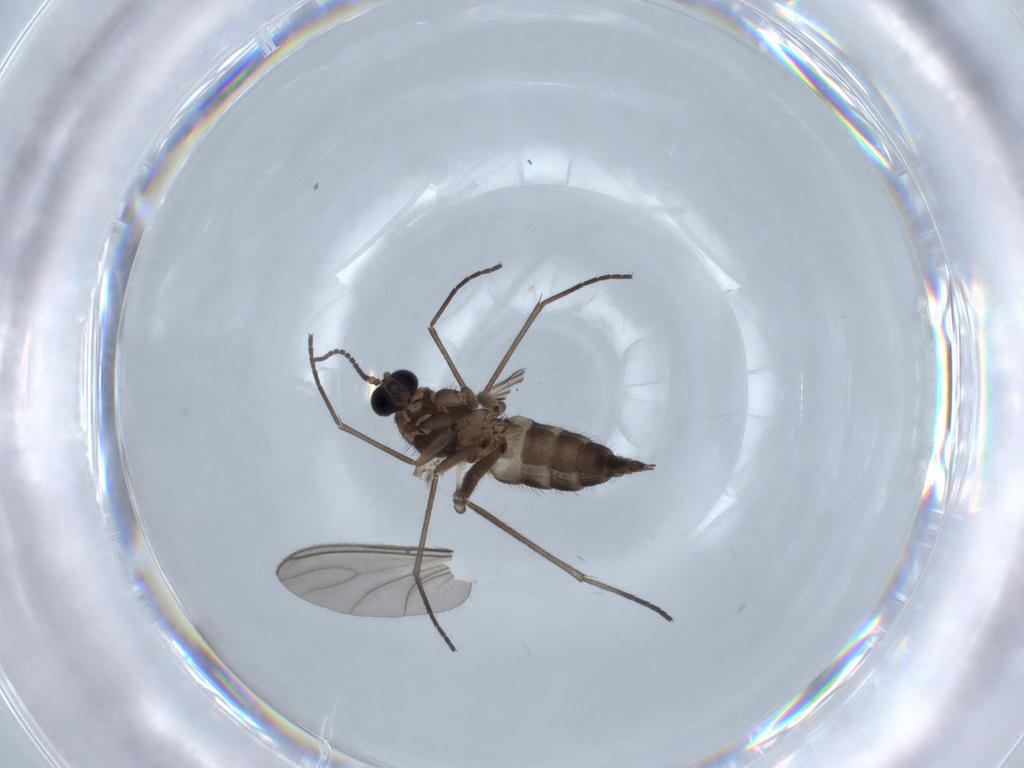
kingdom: Animalia
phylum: Arthropoda
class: Insecta
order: Diptera
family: Sciaridae
